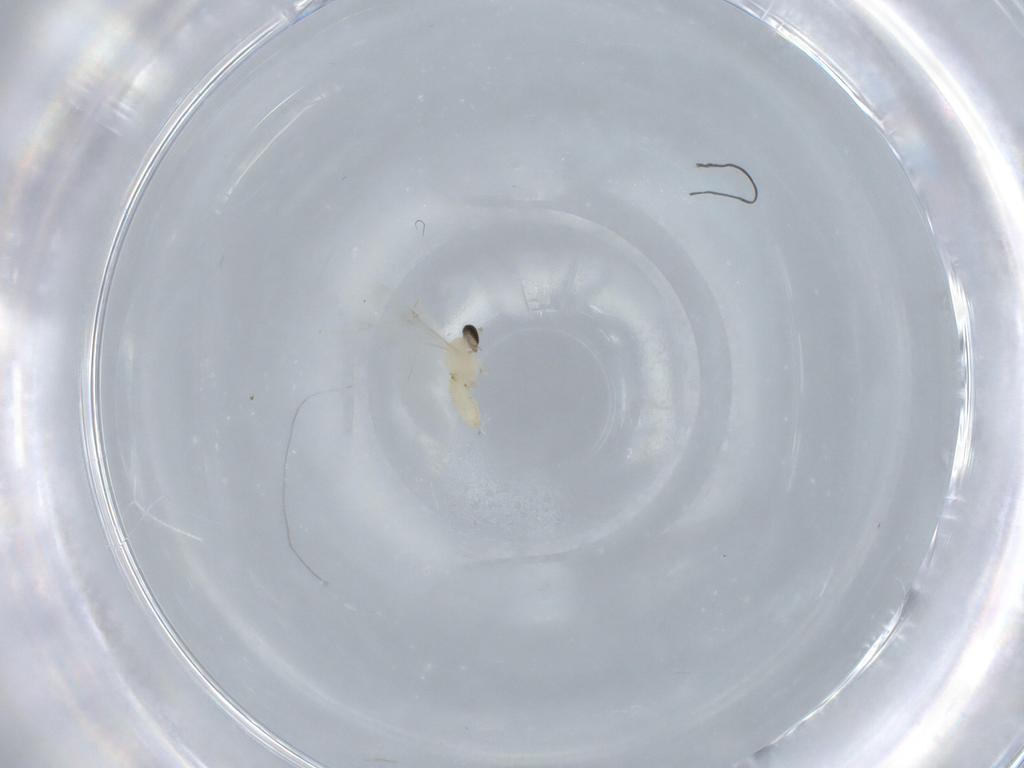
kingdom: Animalia
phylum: Arthropoda
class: Insecta
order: Diptera
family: Cecidomyiidae
